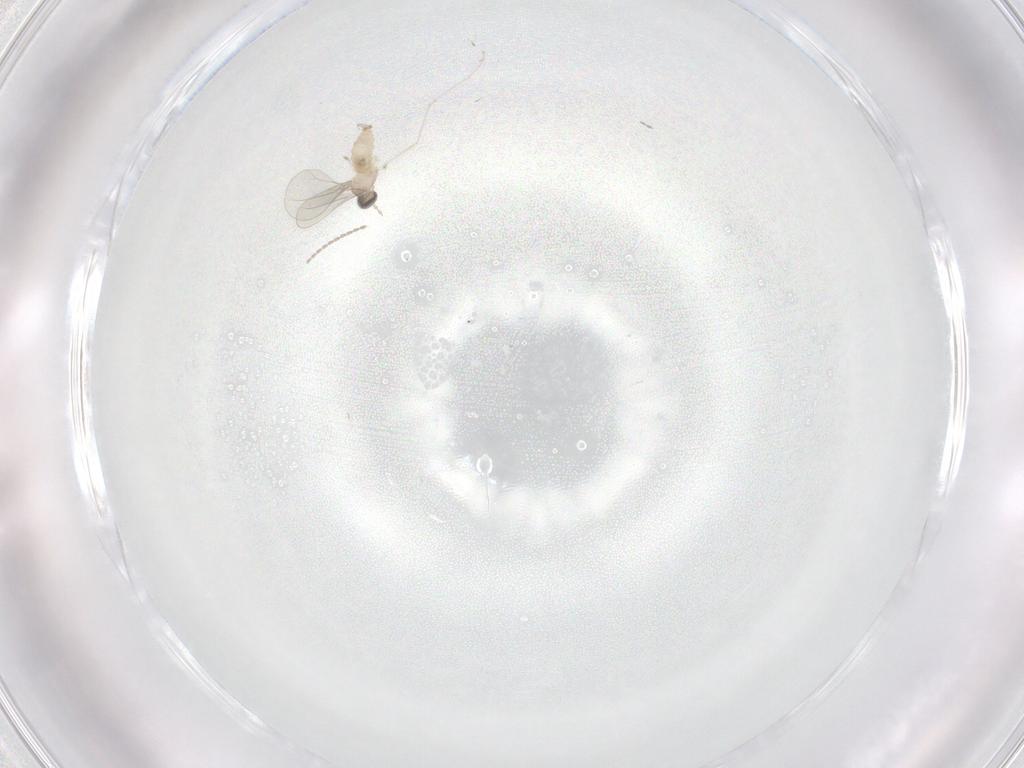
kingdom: Animalia
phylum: Arthropoda
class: Insecta
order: Diptera
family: Cecidomyiidae
